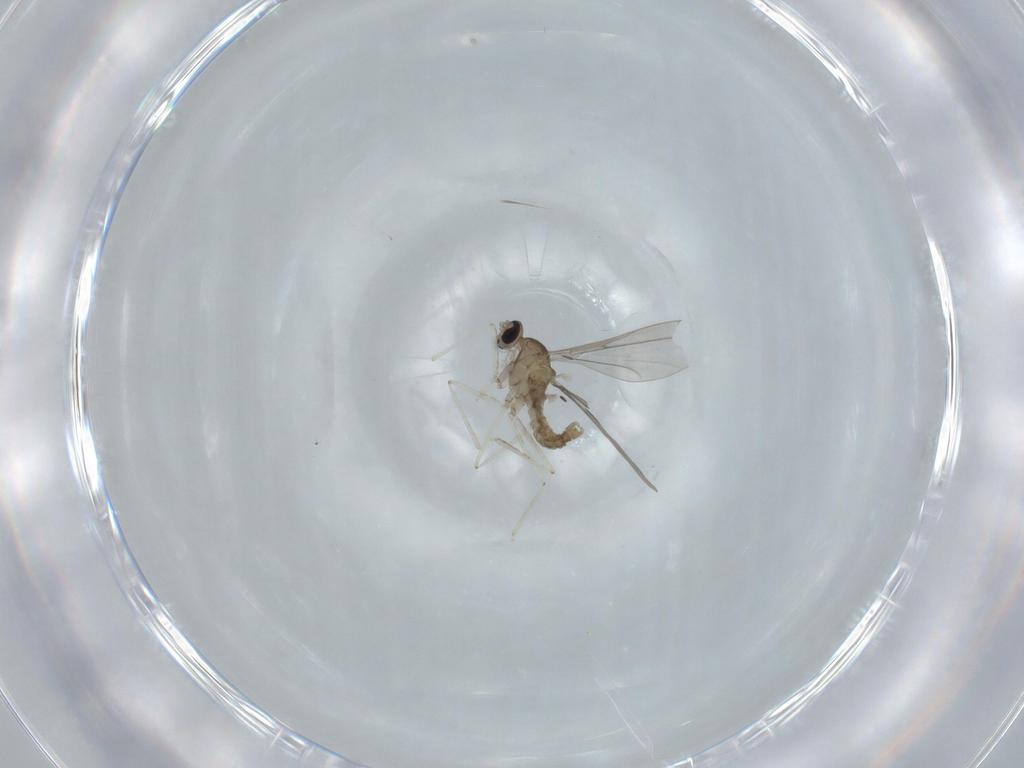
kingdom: Animalia
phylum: Arthropoda
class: Insecta
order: Diptera
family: Cecidomyiidae
